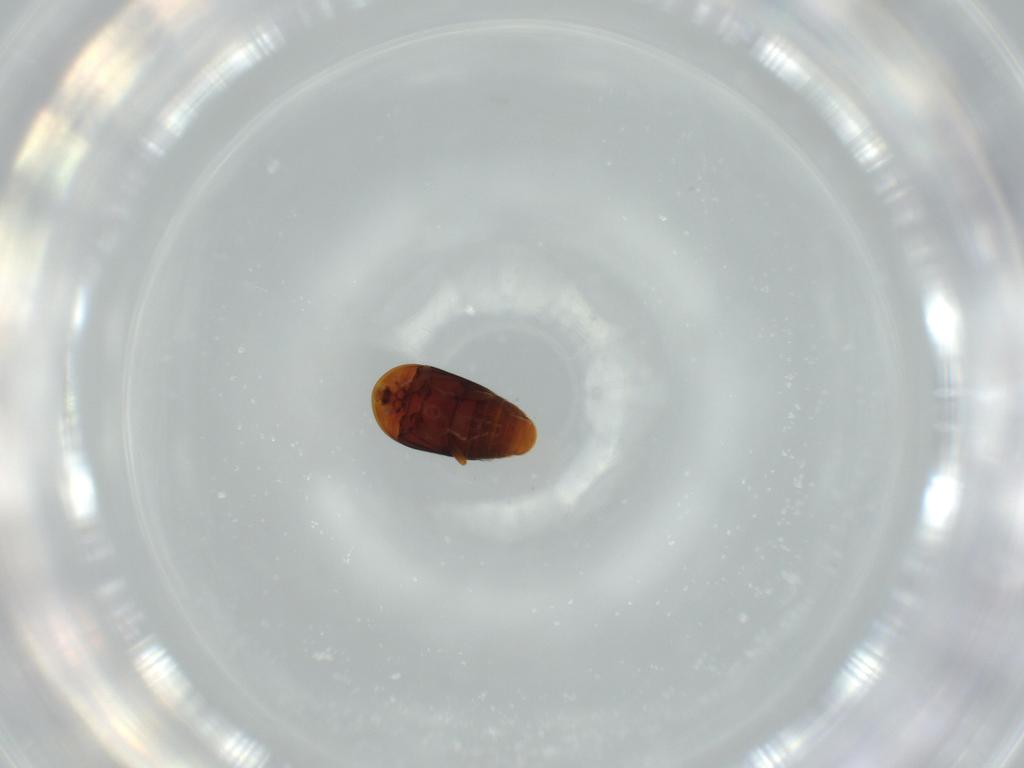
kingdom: Animalia
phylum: Arthropoda
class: Insecta
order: Coleoptera
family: Corylophidae
